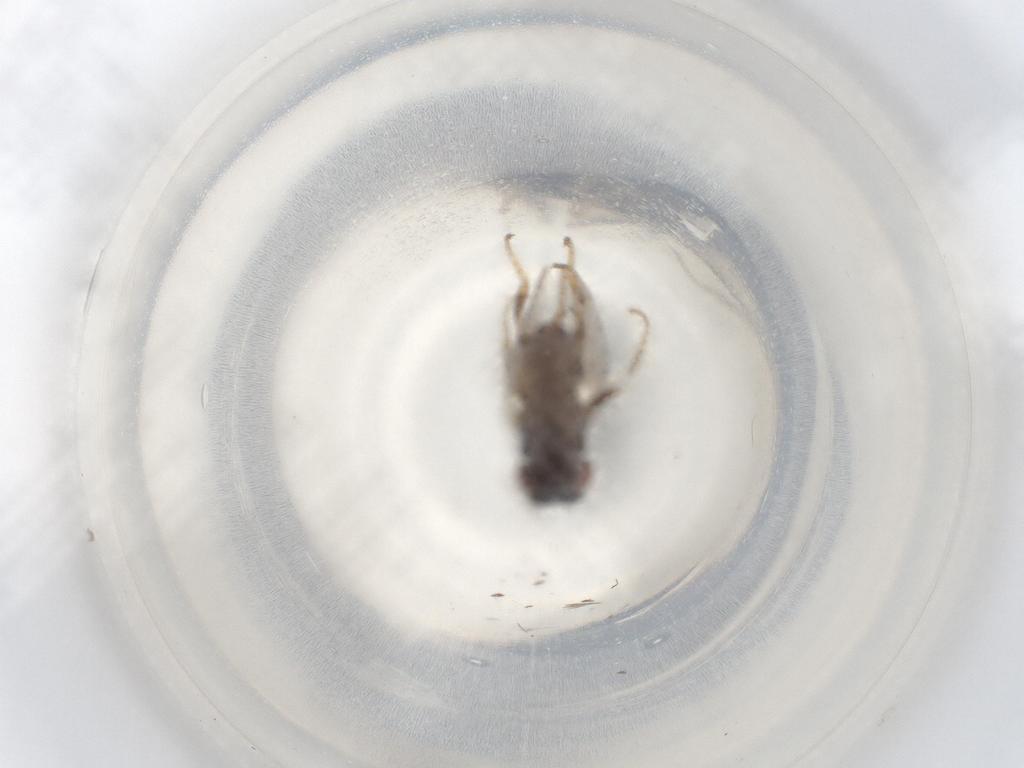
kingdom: Animalia
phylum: Arthropoda
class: Insecta
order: Diptera
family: Milichiidae
